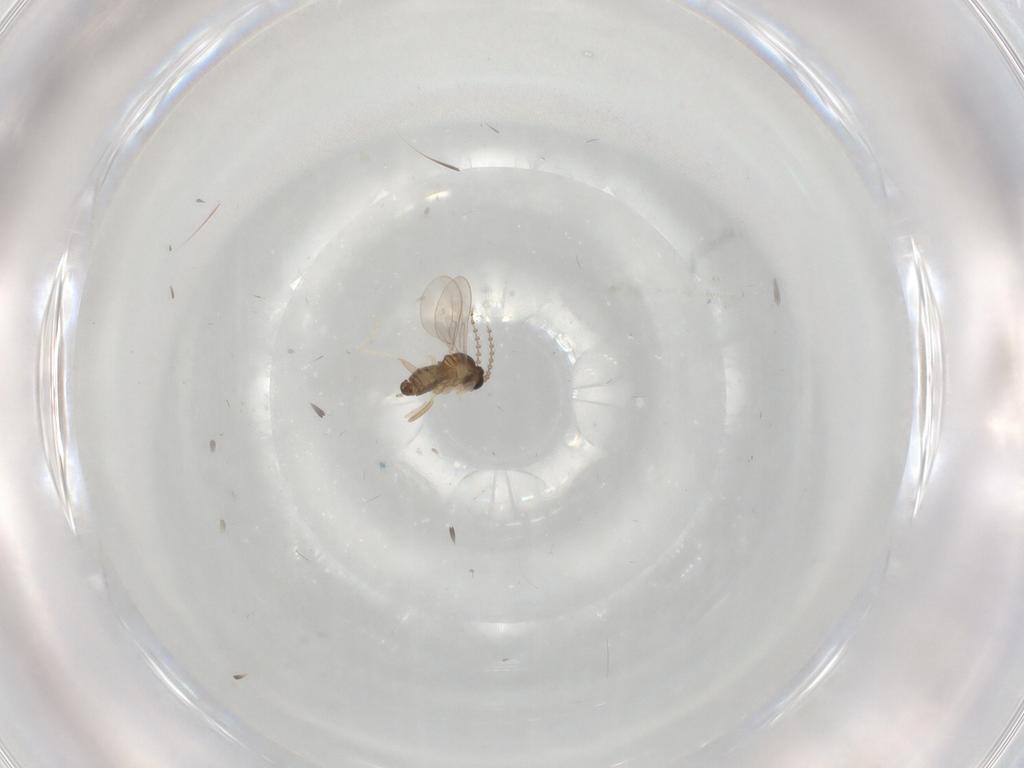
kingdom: Animalia
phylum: Arthropoda
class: Insecta
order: Diptera
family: Cecidomyiidae
